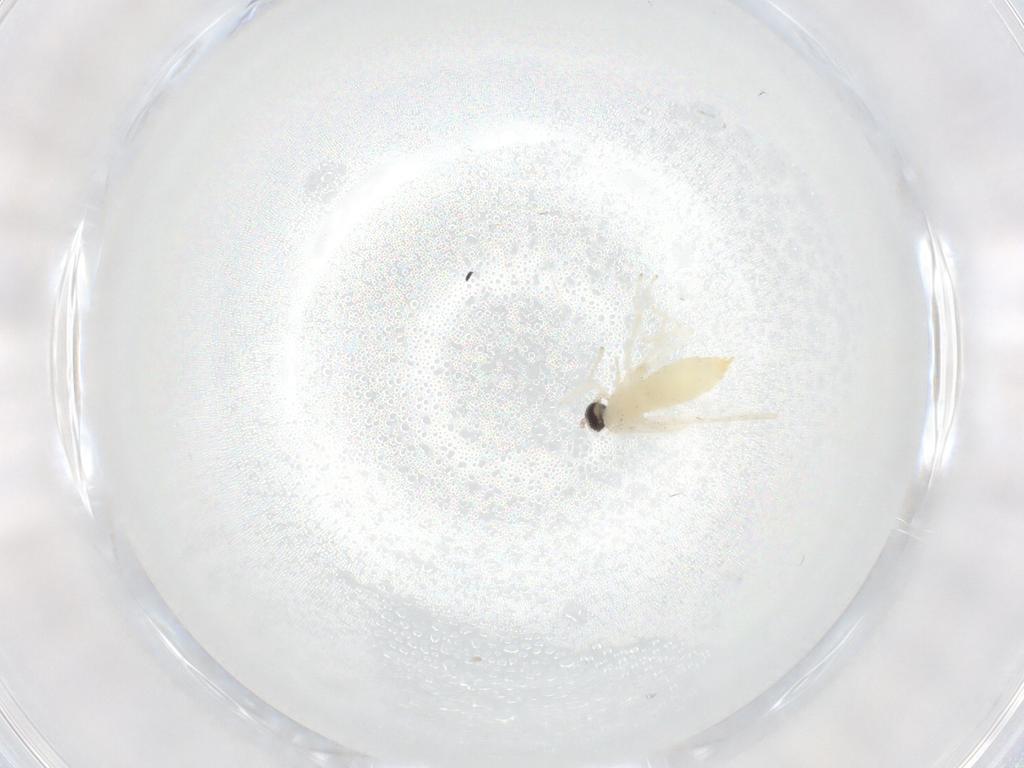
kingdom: Animalia
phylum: Arthropoda
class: Insecta
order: Diptera
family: Cecidomyiidae
